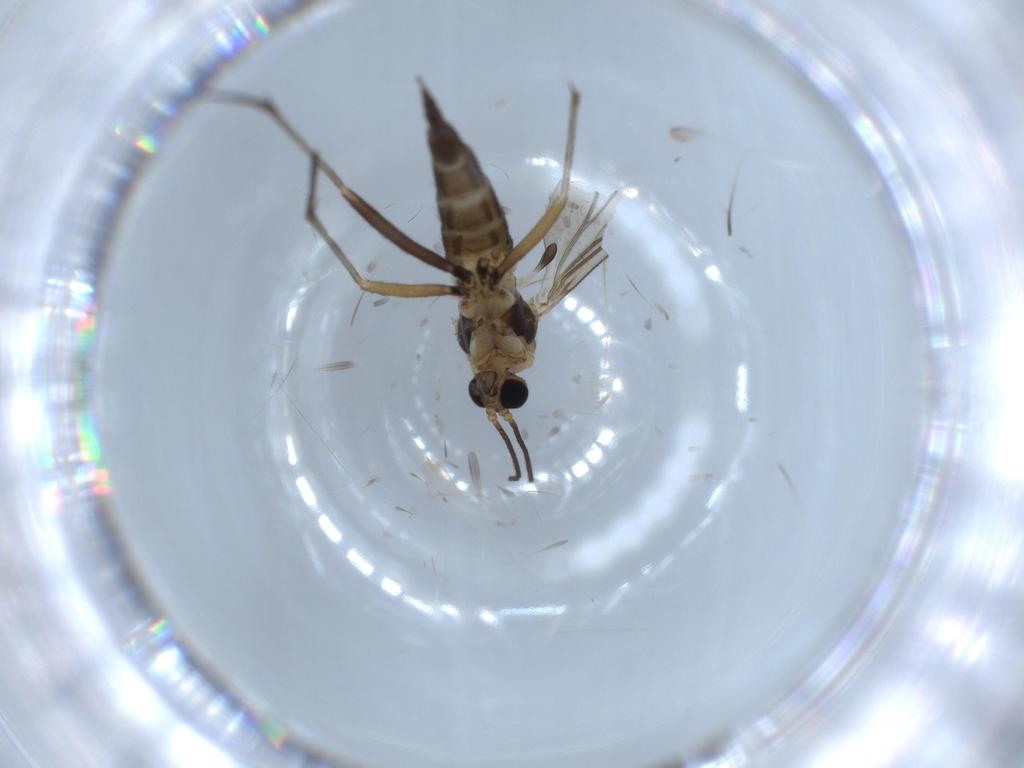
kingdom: Animalia
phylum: Arthropoda
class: Insecta
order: Diptera
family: Sciaridae
